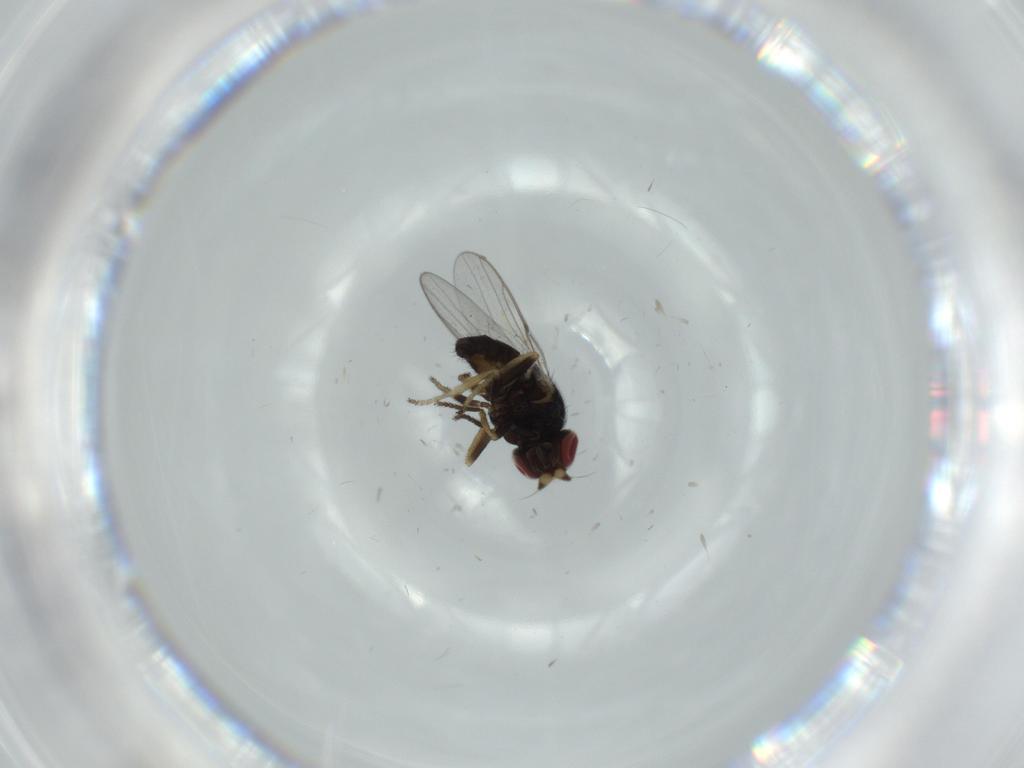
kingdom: Animalia
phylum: Arthropoda
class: Insecta
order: Diptera
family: Chloropidae
